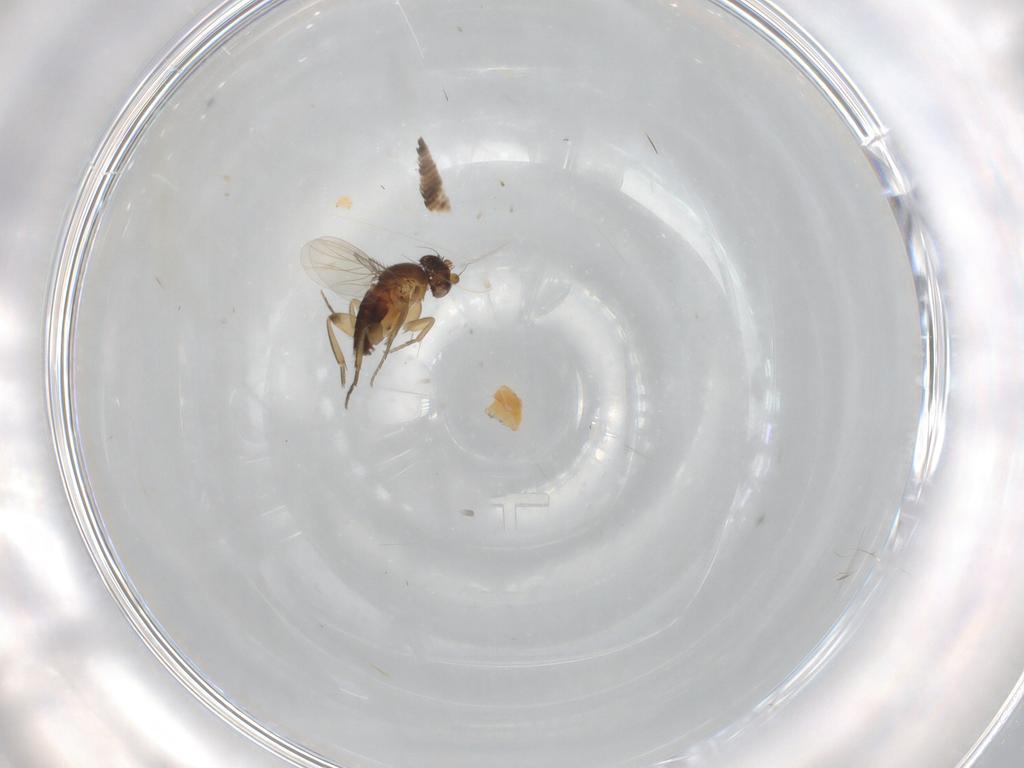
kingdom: Animalia
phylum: Arthropoda
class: Insecta
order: Diptera
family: Phoridae
